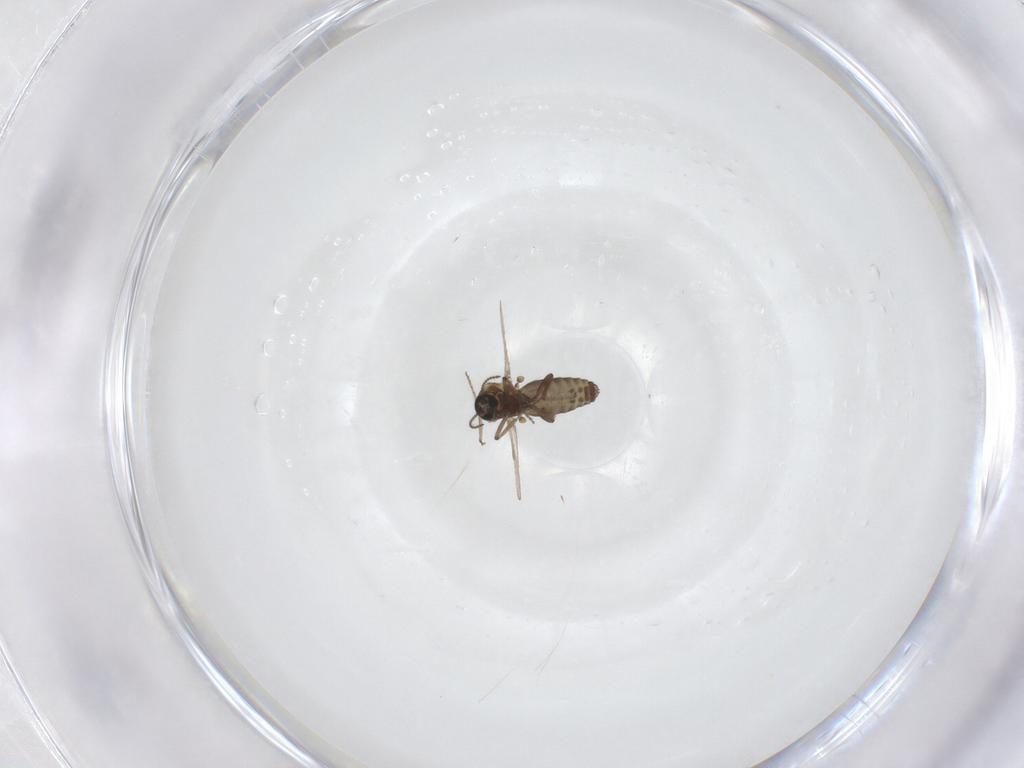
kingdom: Animalia
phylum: Arthropoda
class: Insecta
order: Diptera
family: Ceratopogonidae
